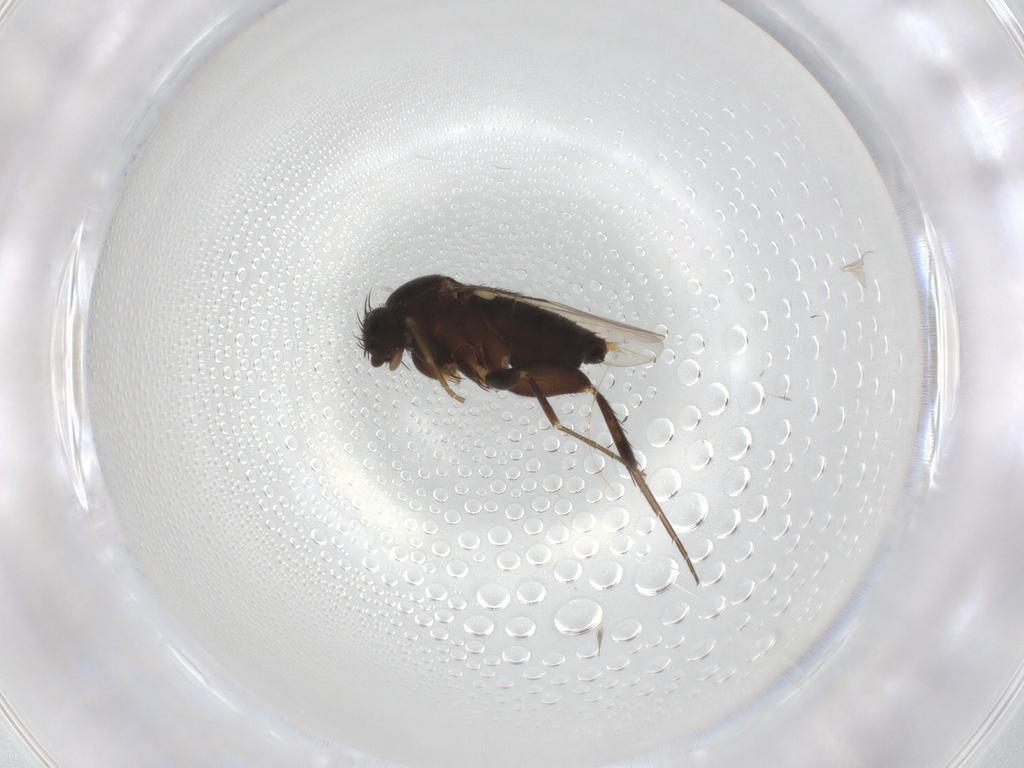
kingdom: Animalia
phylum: Arthropoda
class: Insecta
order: Diptera
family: Phoridae
